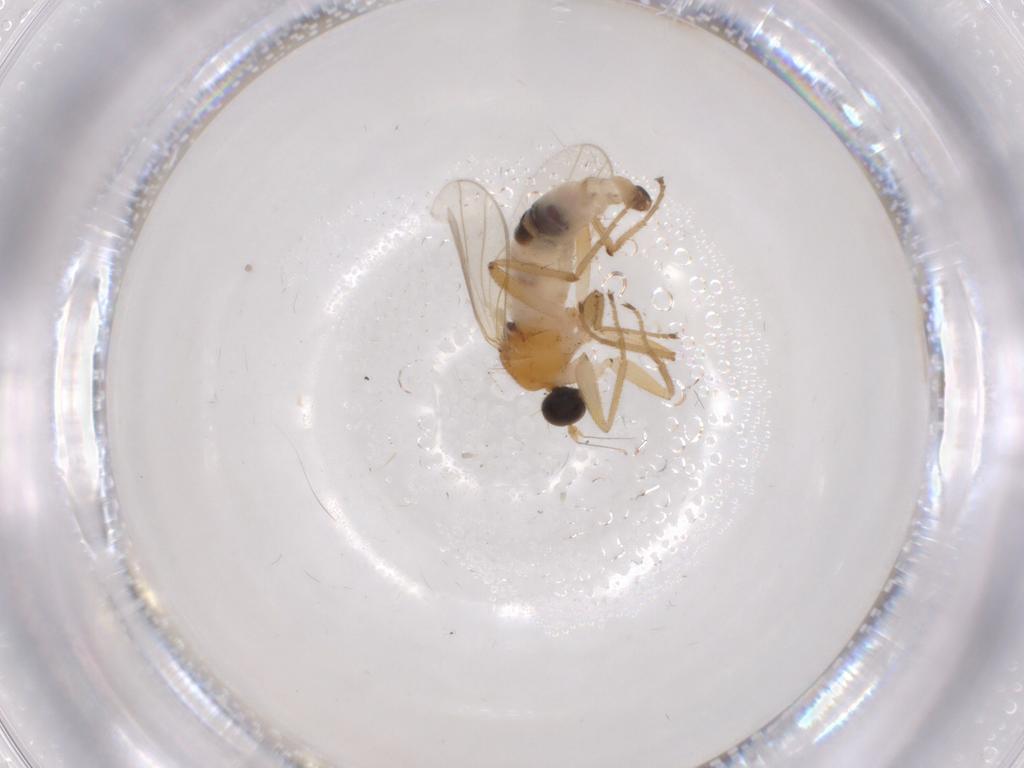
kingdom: Animalia
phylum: Arthropoda
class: Insecta
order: Diptera
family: Hybotidae
